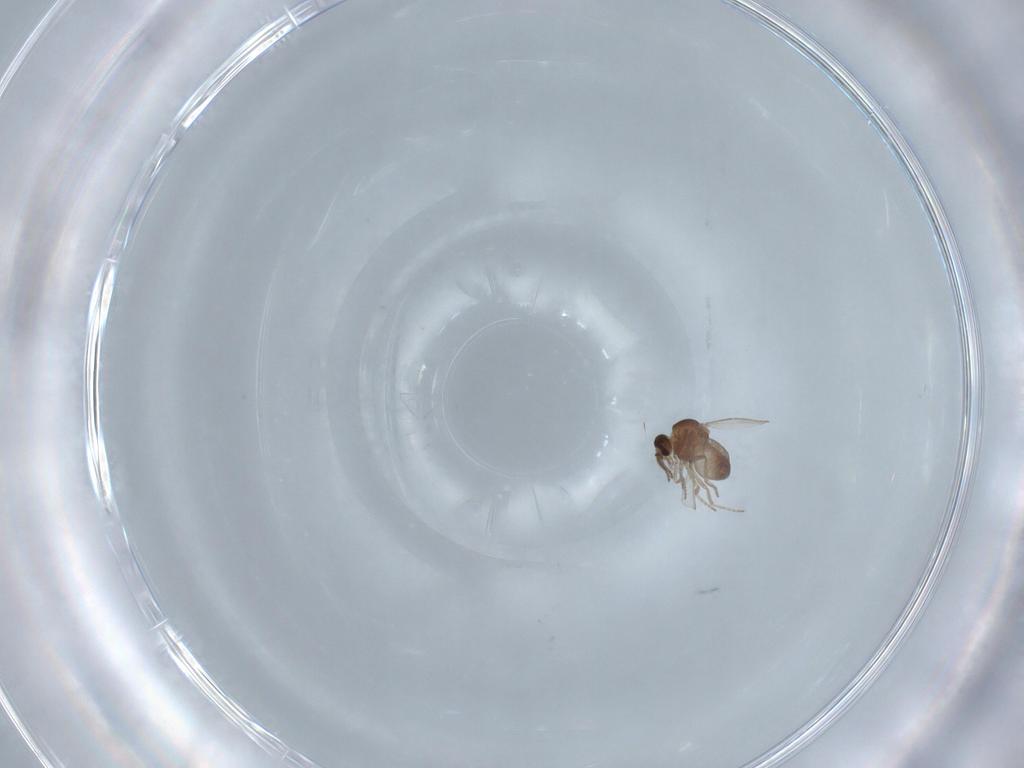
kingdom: Animalia
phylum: Arthropoda
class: Insecta
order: Diptera
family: Ceratopogonidae
